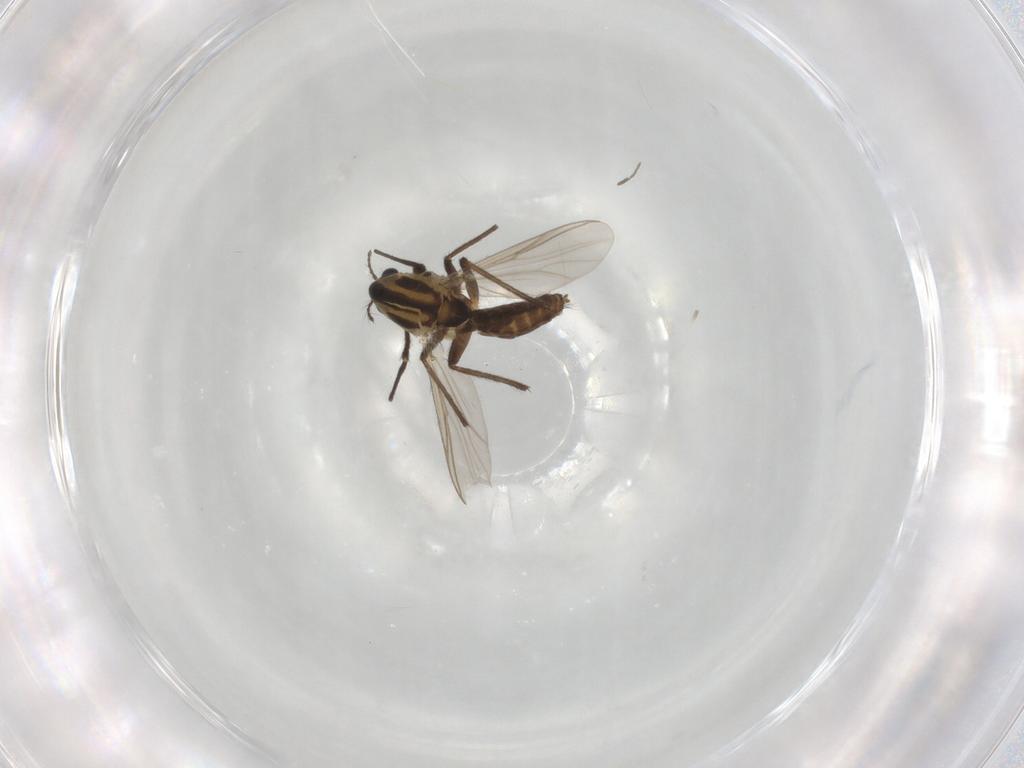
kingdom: Animalia
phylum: Arthropoda
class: Insecta
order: Diptera
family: Chironomidae
